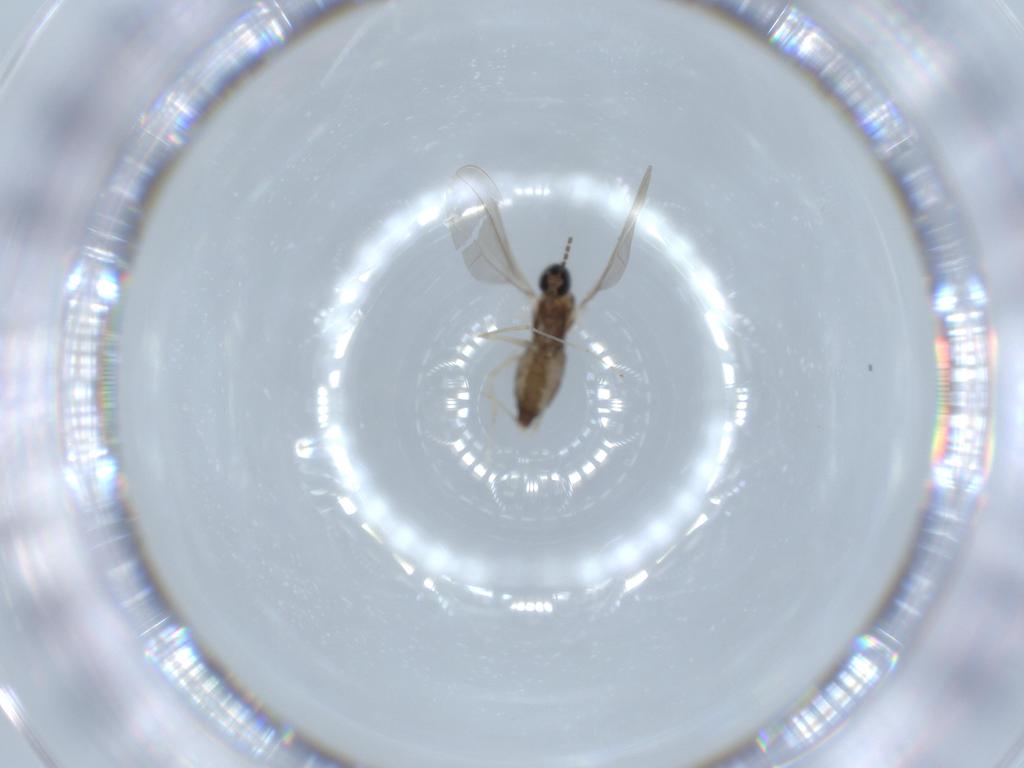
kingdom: Animalia
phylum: Arthropoda
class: Insecta
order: Diptera
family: Cecidomyiidae
